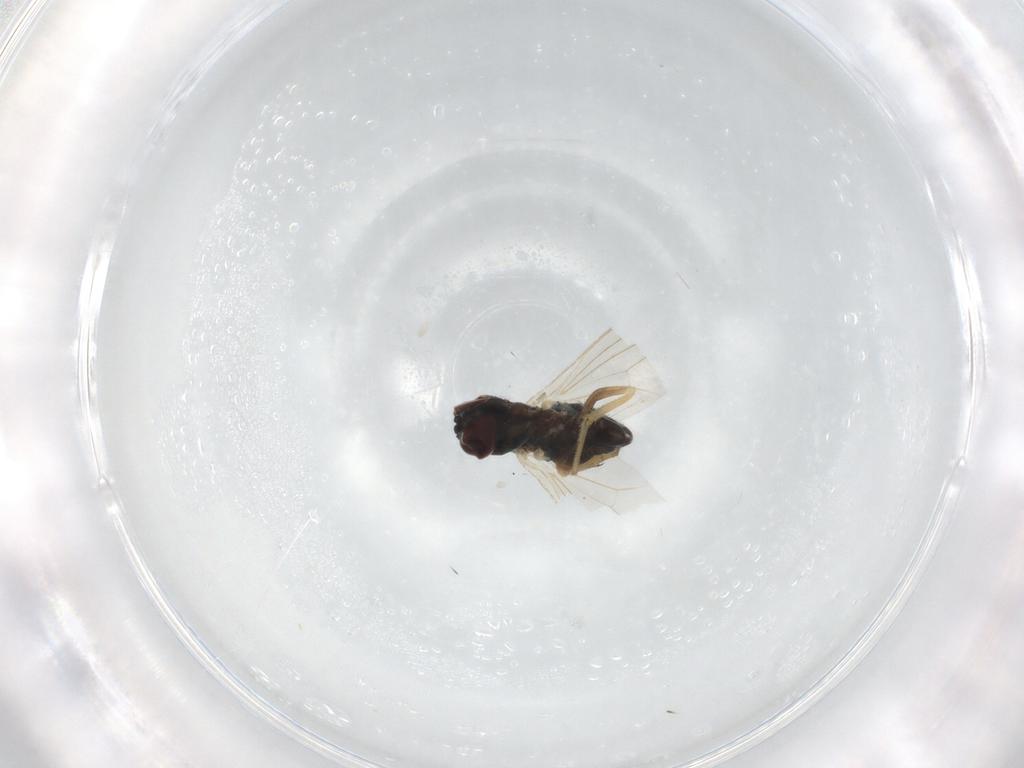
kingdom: Animalia
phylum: Arthropoda
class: Insecta
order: Diptera
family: Dolichopodidae
